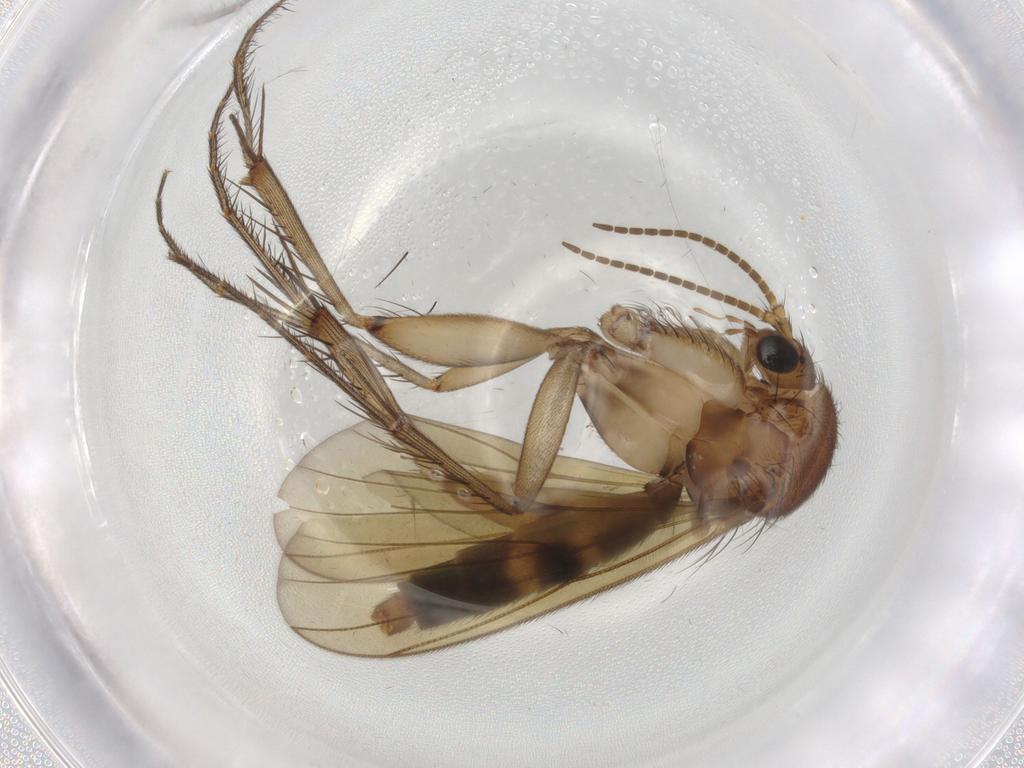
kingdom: Animalia
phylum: Arthropoda
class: Insecta
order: Diptera
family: Mycetophilidae
